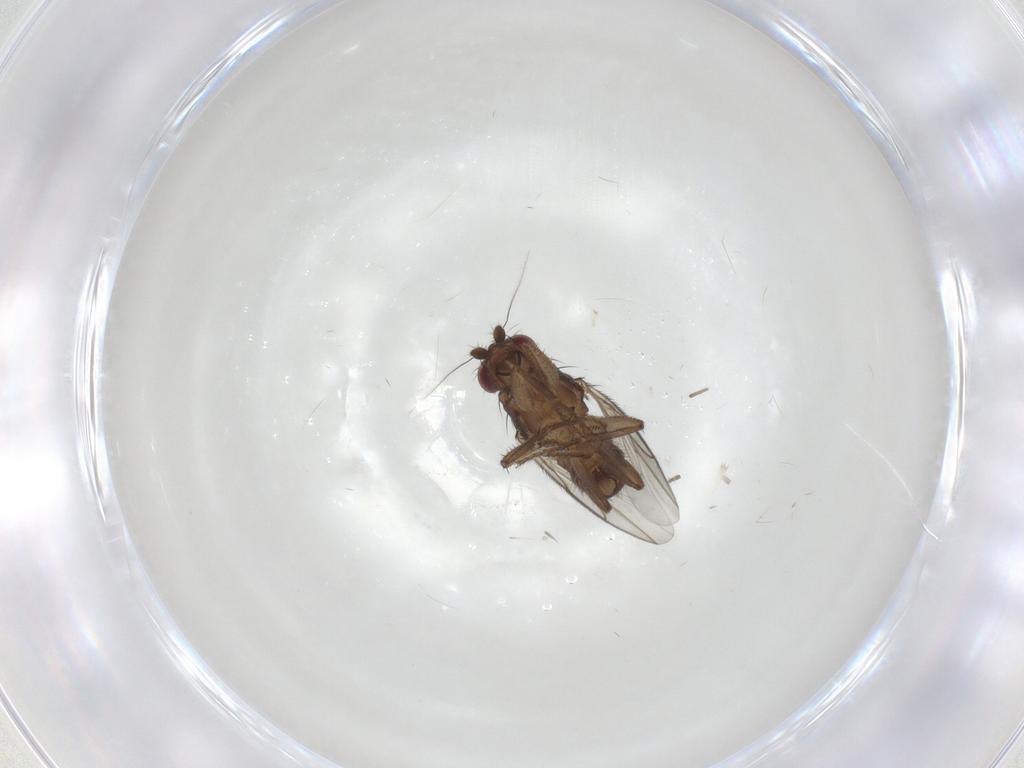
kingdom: Animalia
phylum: Arthropoda
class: Insecta
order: Diptera
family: Sphaeroceridae
